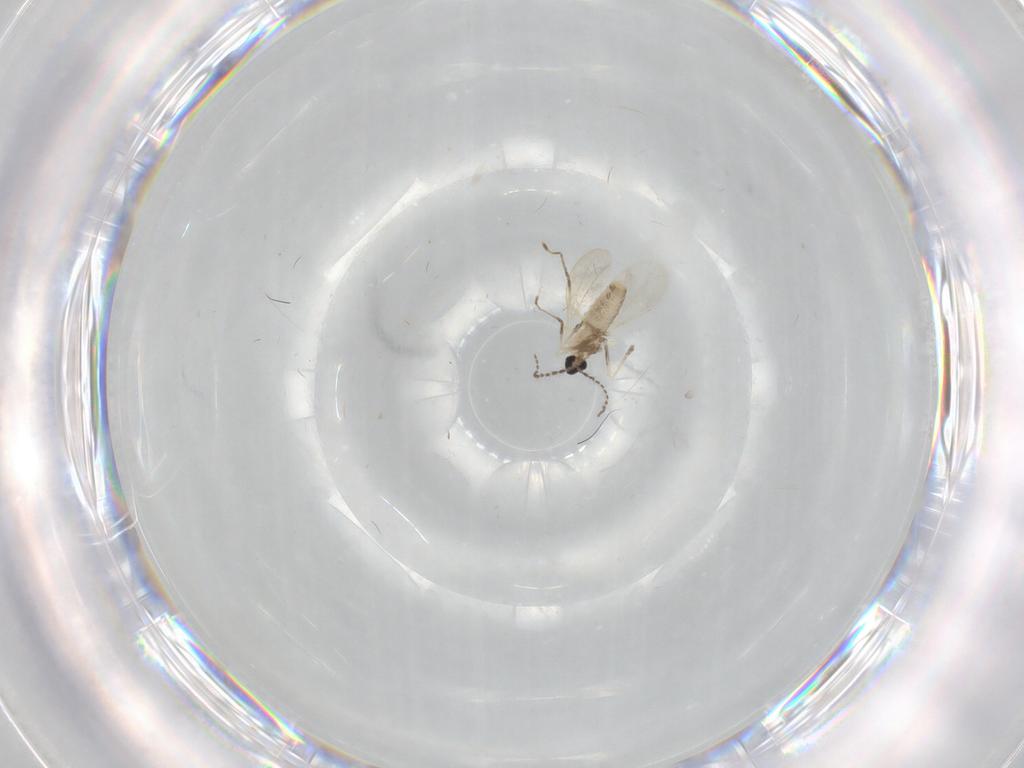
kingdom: Animalia
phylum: Arthropoda
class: Insecta
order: Diptera
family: Cecidomyiidae
